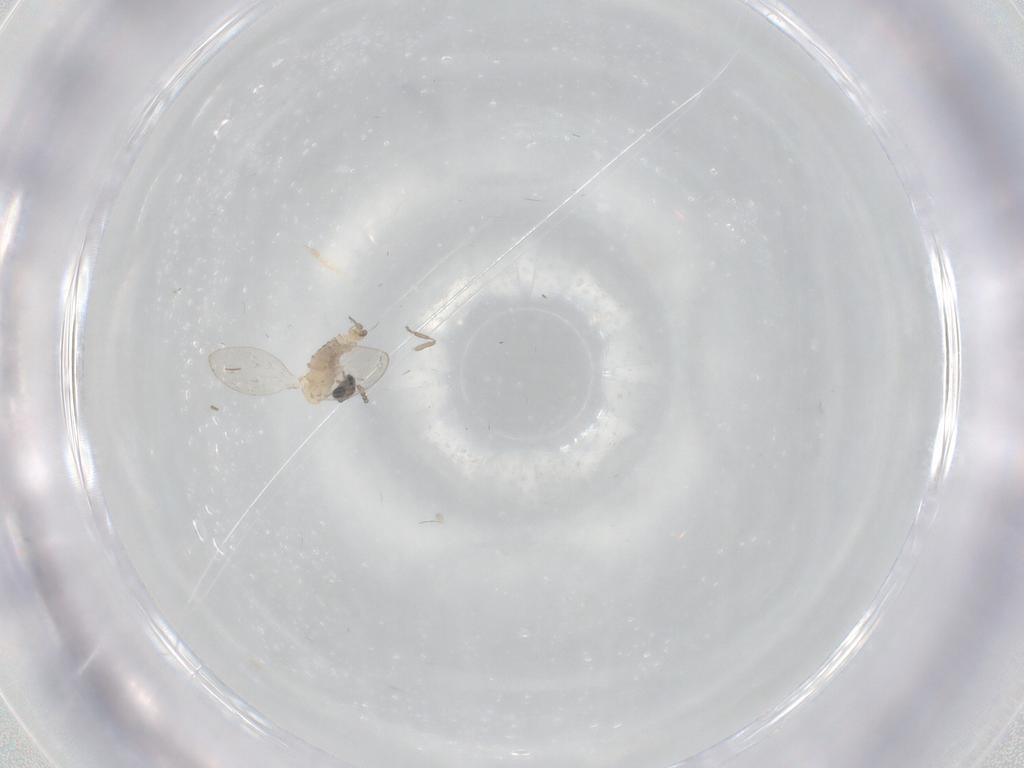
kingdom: Animalia
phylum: Arthropoda
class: Insecta
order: Diptera
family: Psychodidae
